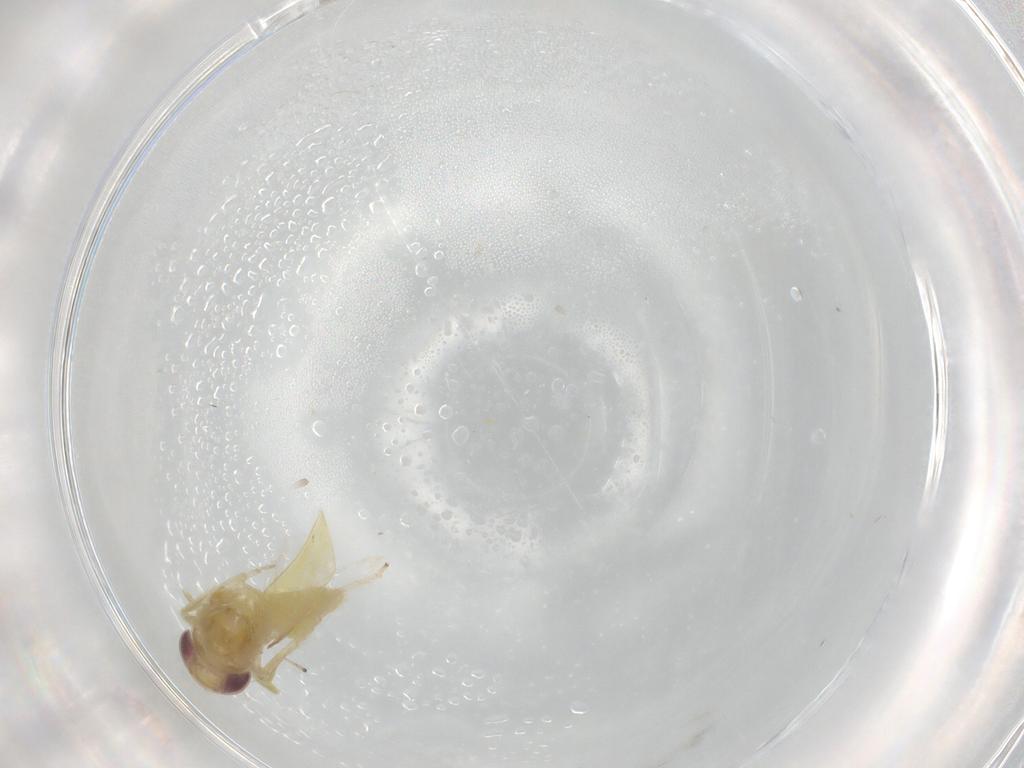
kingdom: Animalia
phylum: Arthropoda
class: Insecta
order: Hemiptera
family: Cicadellidae
